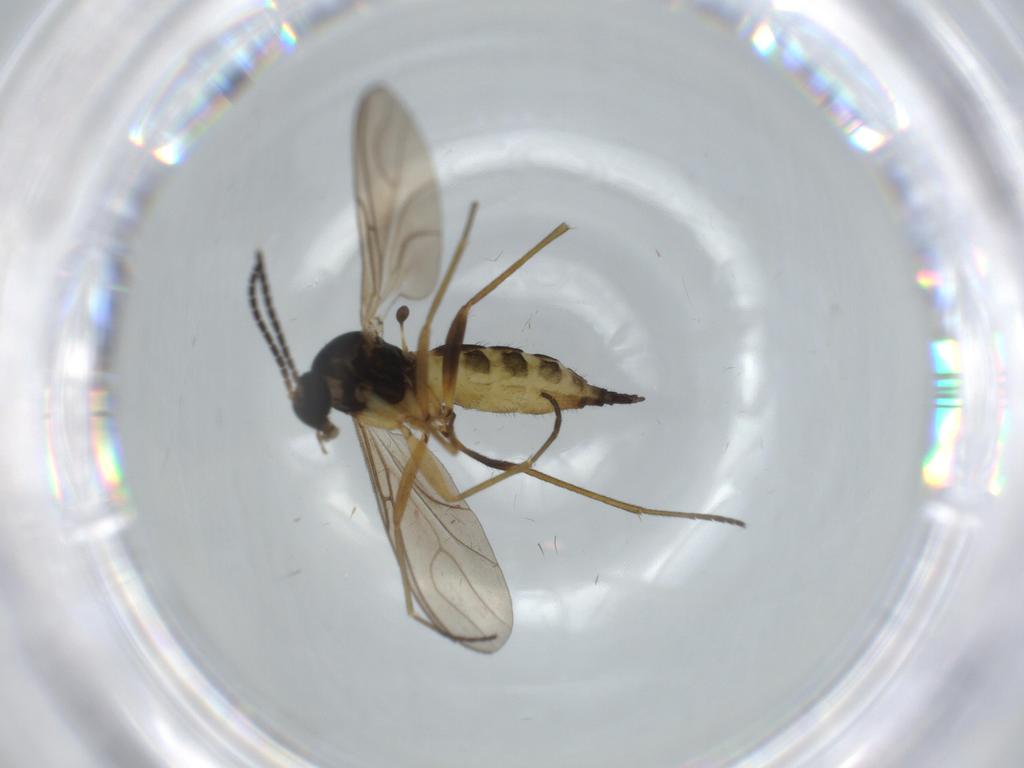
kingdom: Animalia
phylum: Arthropoda
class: Insecta
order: Diptera
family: Sciaridae
